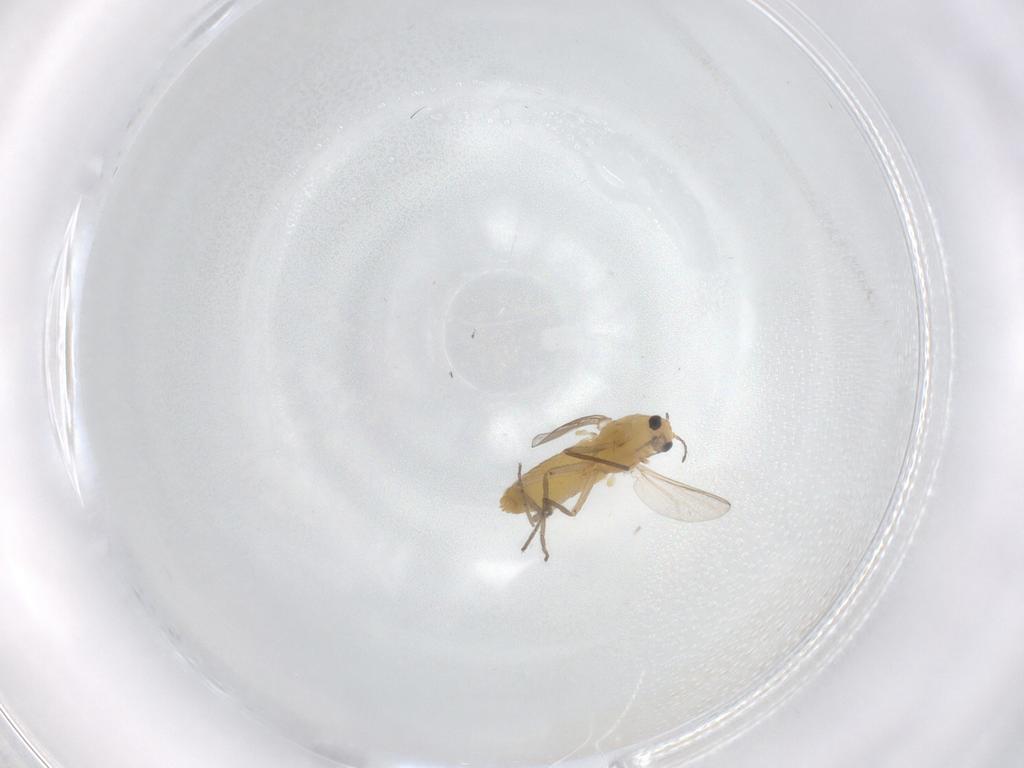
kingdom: Animalia
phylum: Arthropoda
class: Insecta
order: Diptera
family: Chironomidae
